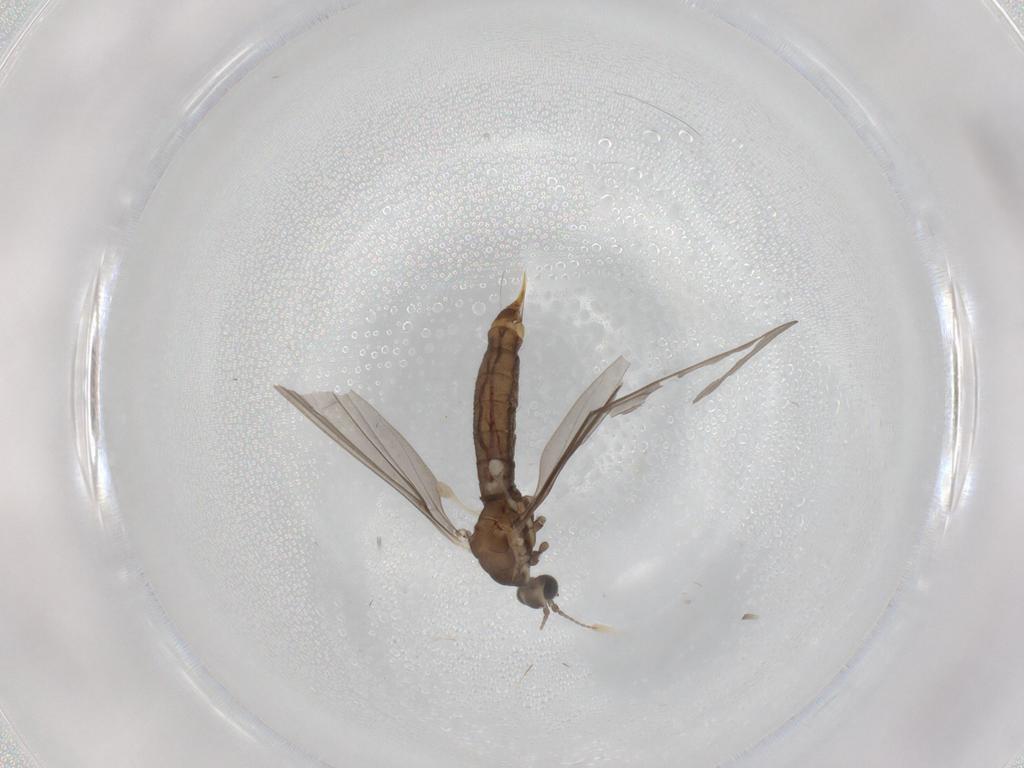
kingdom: Animalia
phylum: Arthropoda
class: Insecta
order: Diptera
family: Limoniidae
